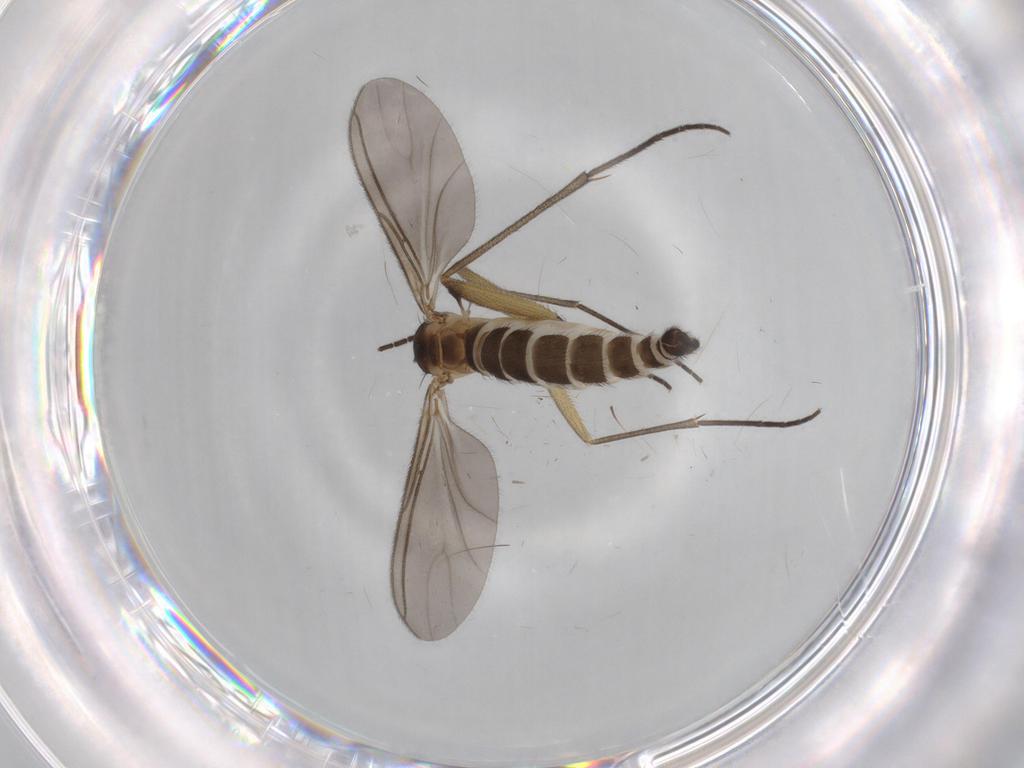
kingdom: Animalia
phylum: Arthropoda
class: Insecta
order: Diptera
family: Sciaridae
